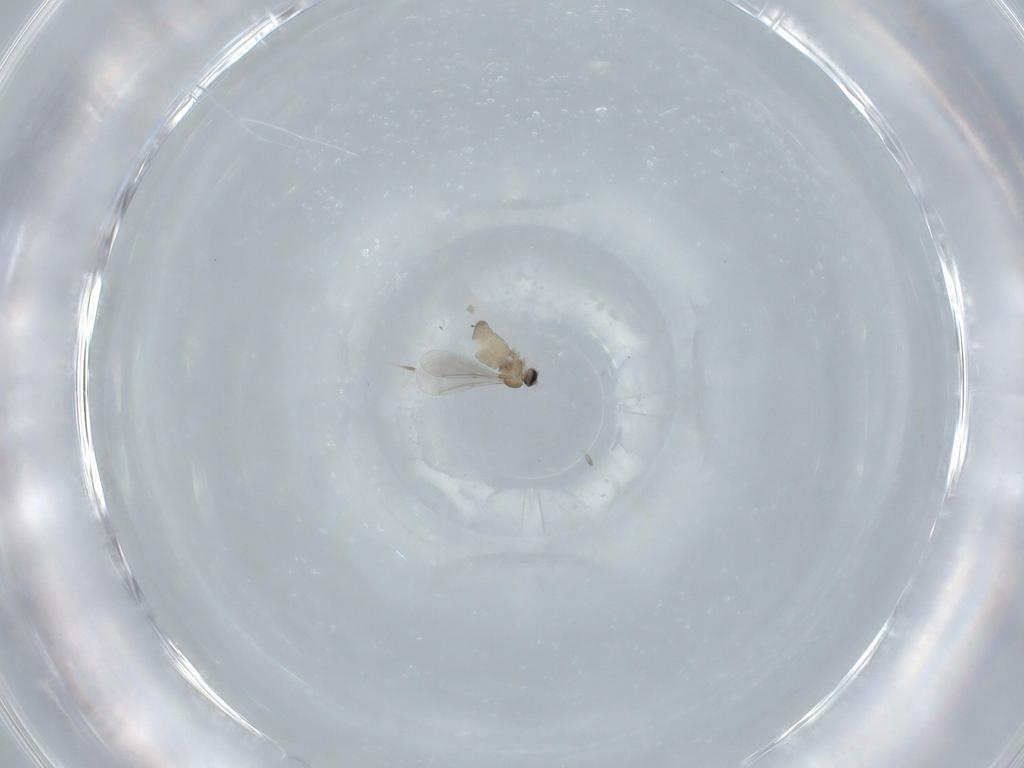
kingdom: Animalia
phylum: Arthropoda
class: Insecta
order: Diptera
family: Cecidomyiidae
